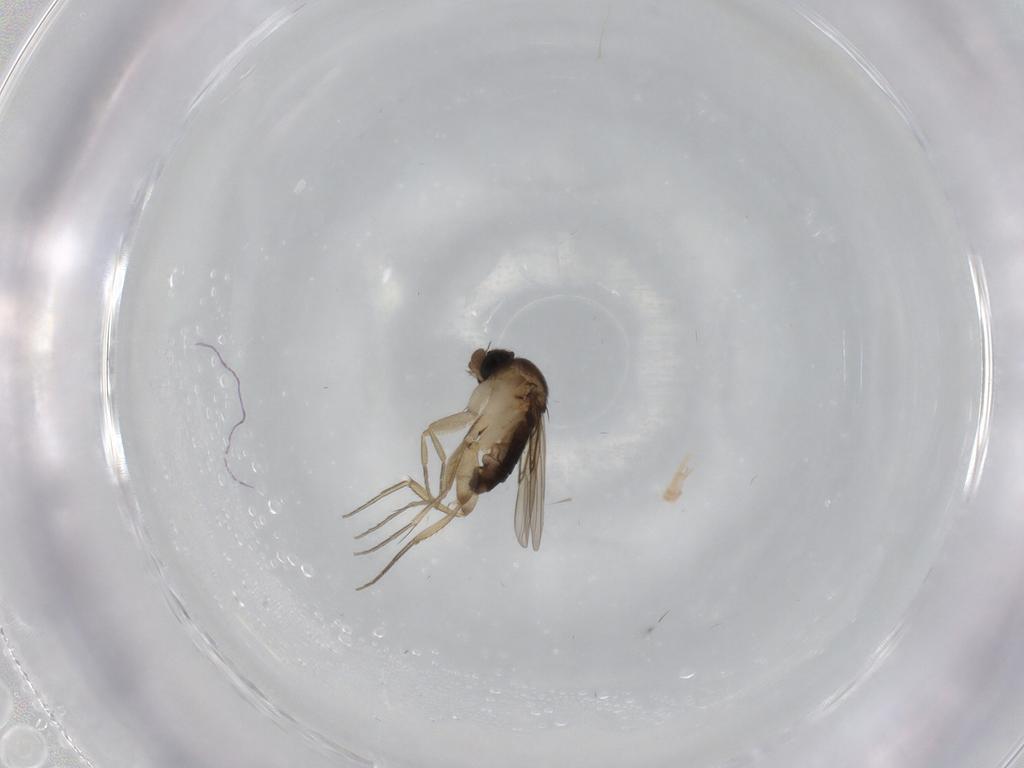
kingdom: Animalia
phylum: Arthropoda
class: Insecta
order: Diptera
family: Phoridae
